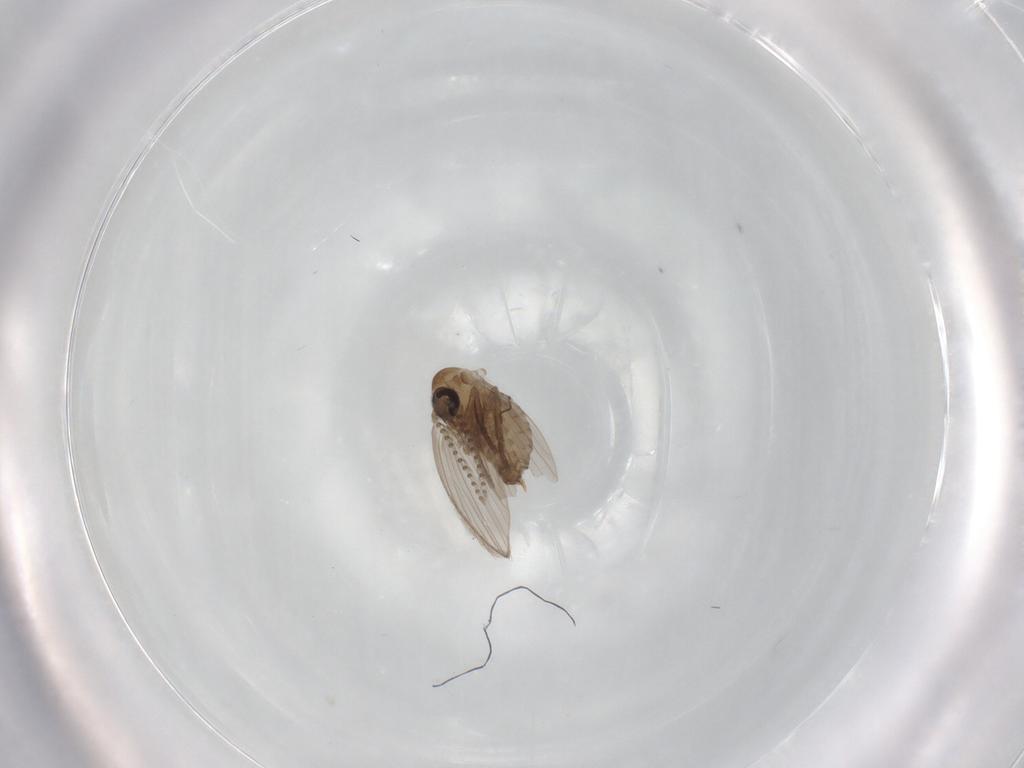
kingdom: Animalia
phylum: Arthropoda
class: Insecta
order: Diptera
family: Psychodidae
